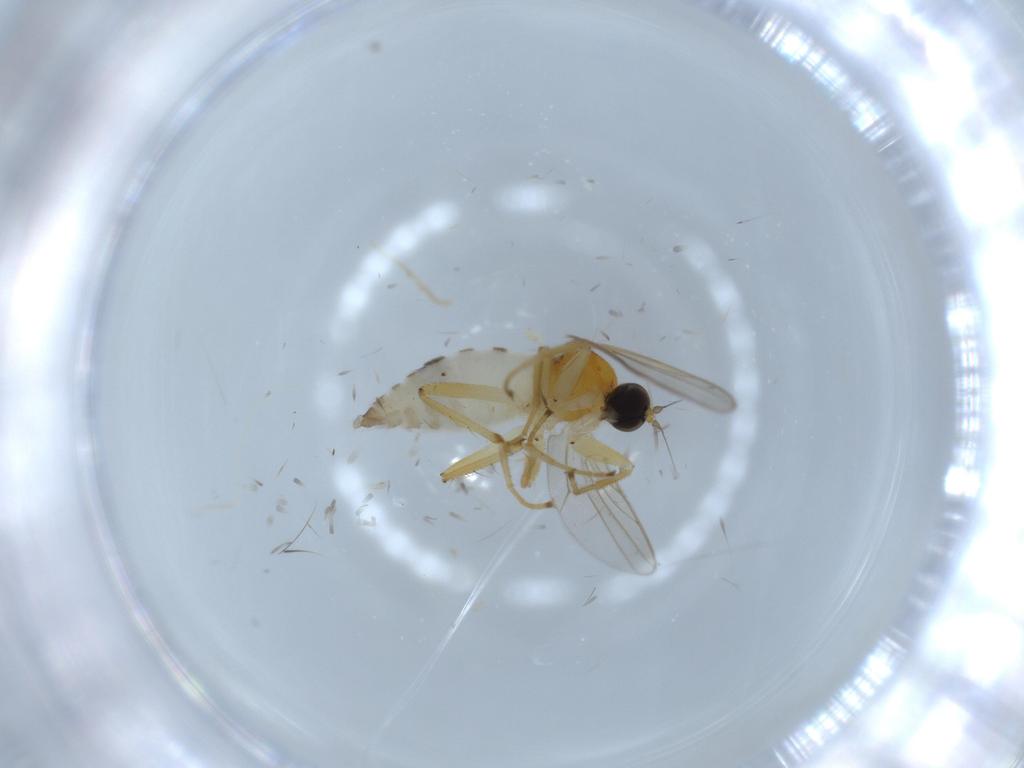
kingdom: Animalia
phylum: Arthropoda
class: Insecta
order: Diptera
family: Hybotidae
